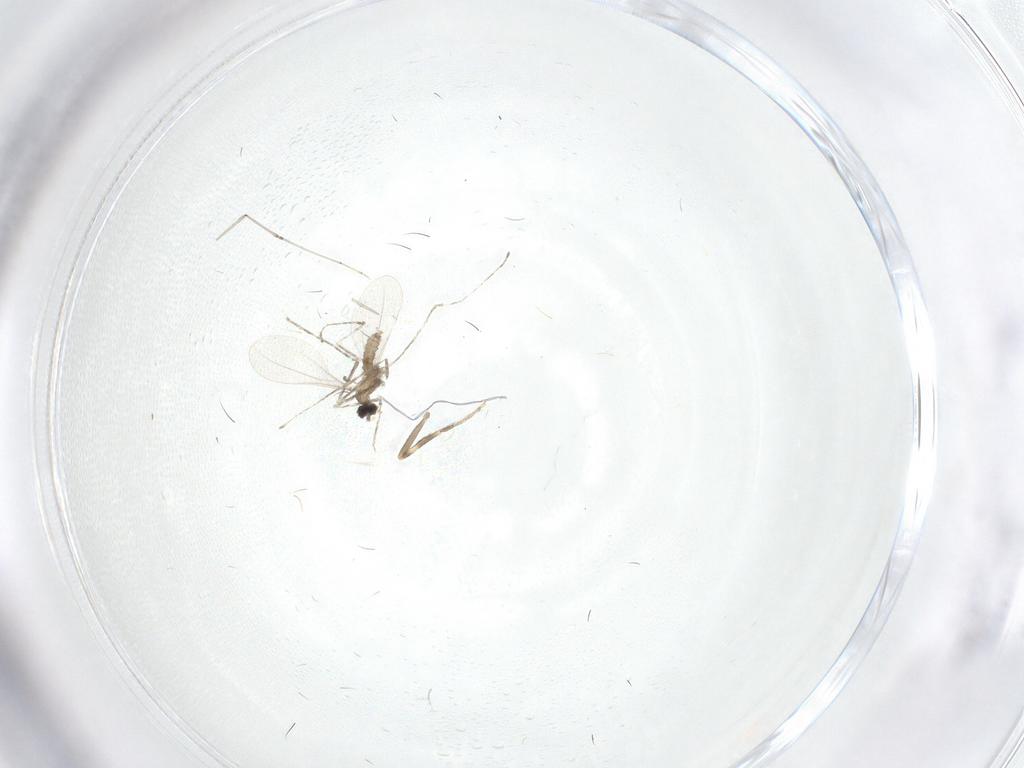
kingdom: Animalia
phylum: Arthropoda
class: Insecta
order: Diptera
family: Cecidomyiidae
